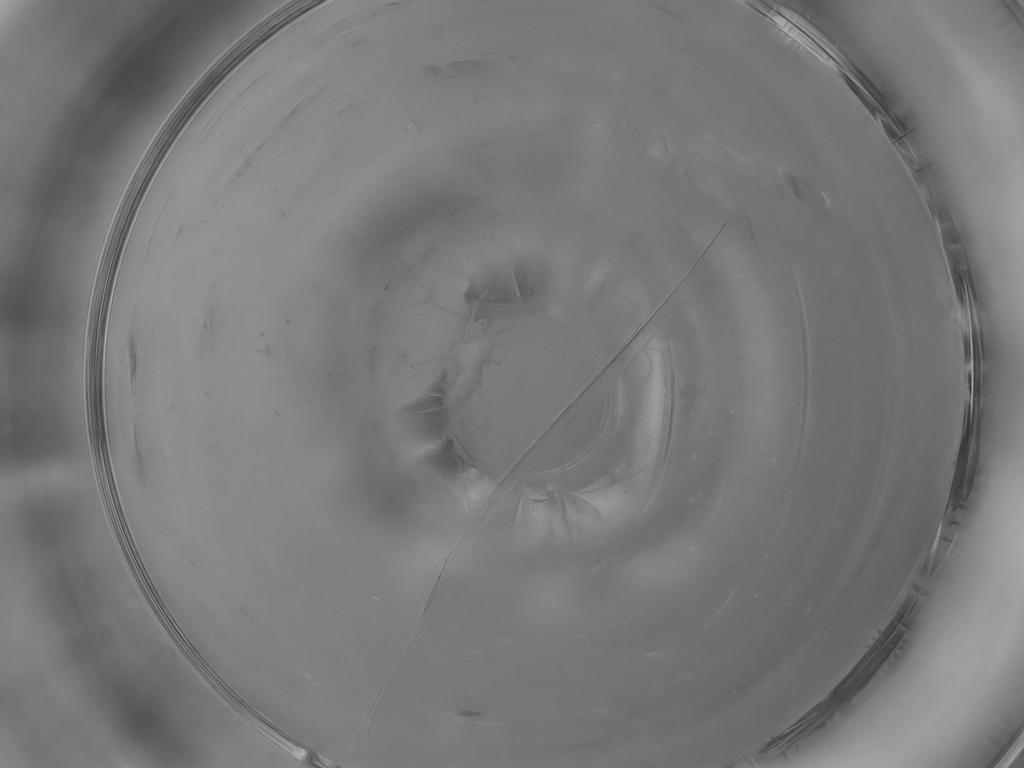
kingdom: Animalia
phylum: Arthropoda
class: Insecta
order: Diptera
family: Cecidomyiidae
